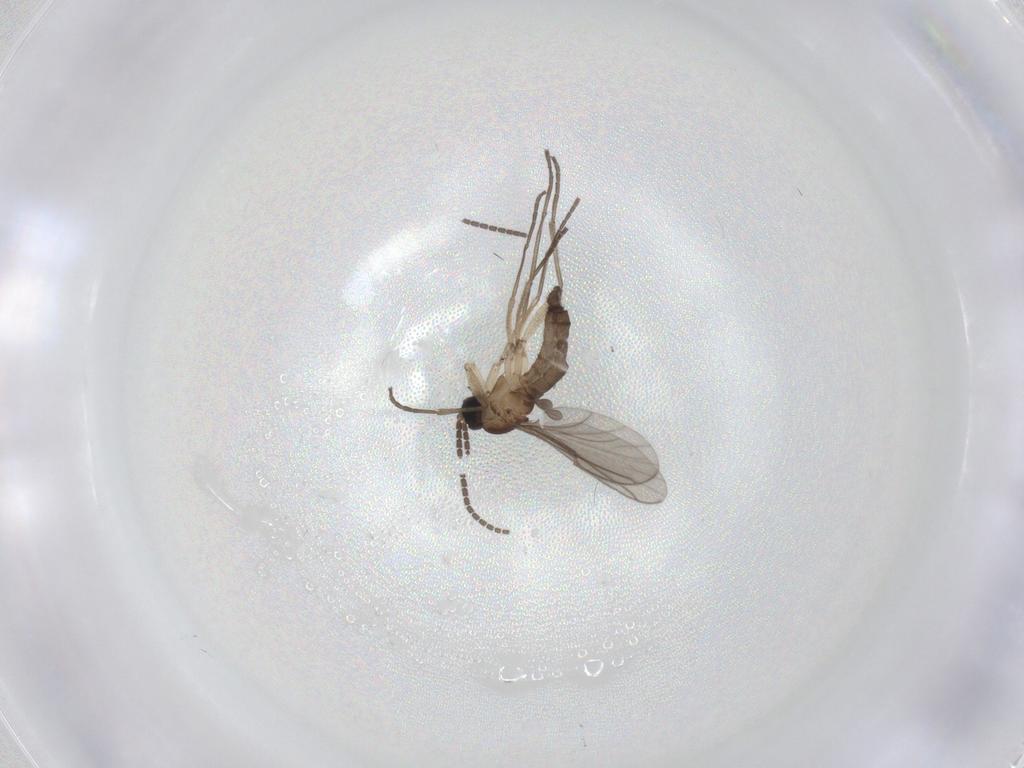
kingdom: Animalia
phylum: Arthropoda
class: Insecta
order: Diptera
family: Sciaridae
